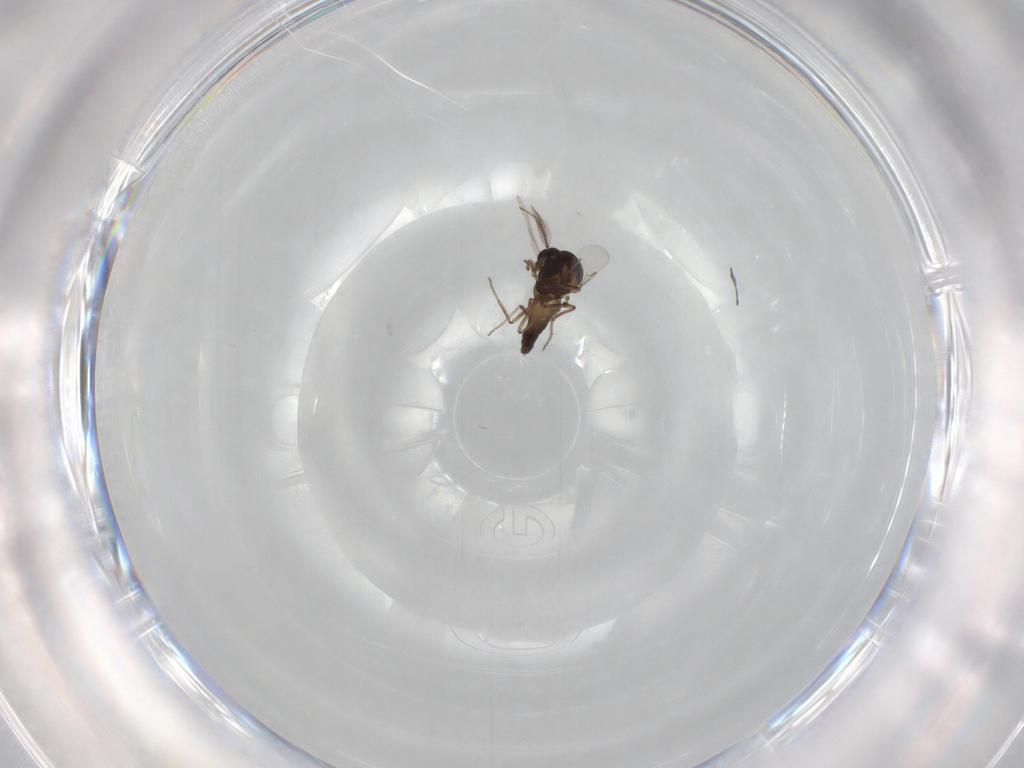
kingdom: Animalia
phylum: Arthropoda
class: Insecta
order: Diptera
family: Ceratopogonidae
